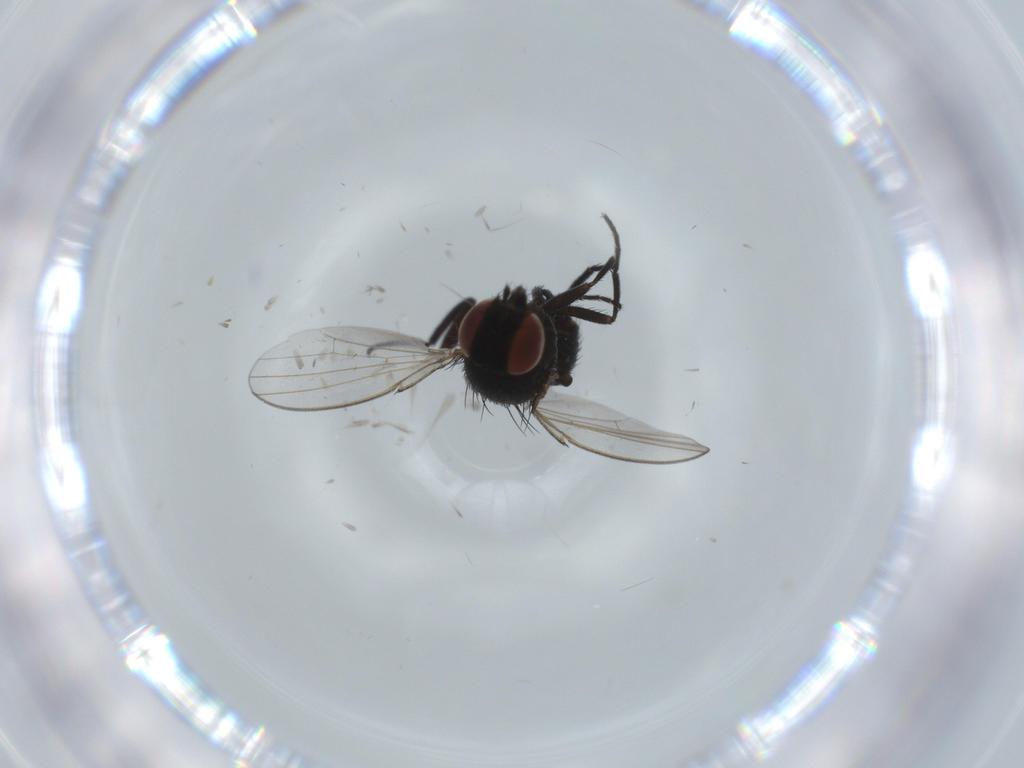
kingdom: Animalia
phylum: Arthropoda
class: Insecta
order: Diptera
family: Milichiidae
